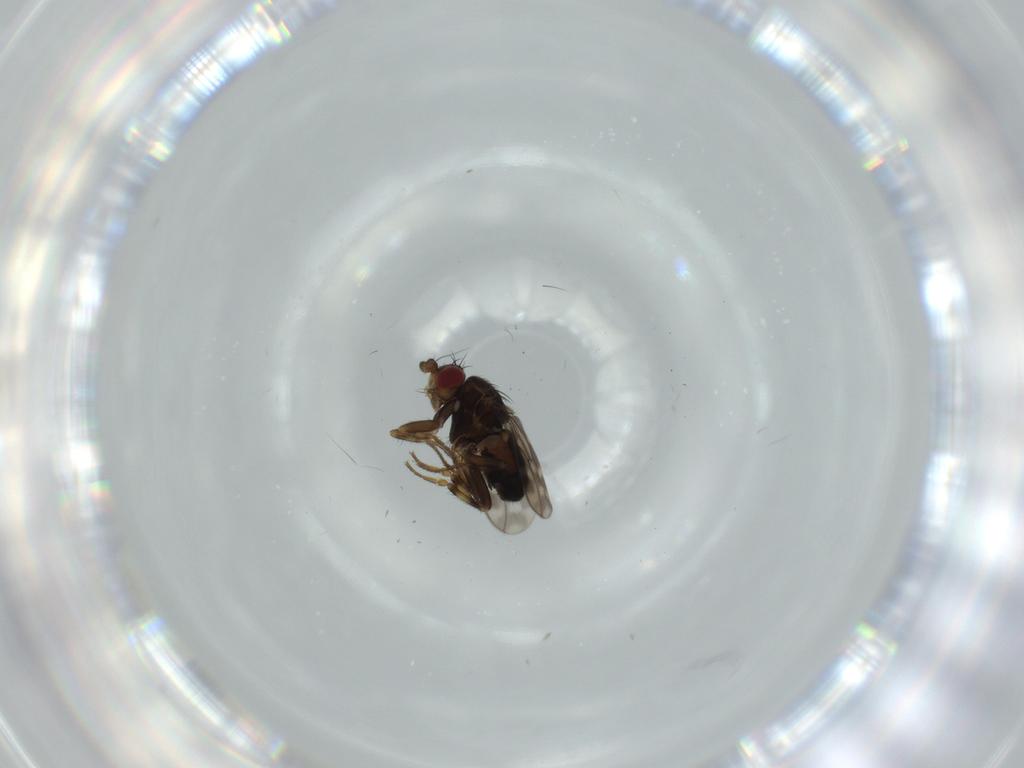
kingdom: Animalia
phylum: Arthropoda
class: Insecta
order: Diptera
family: Sphaeroceridae
